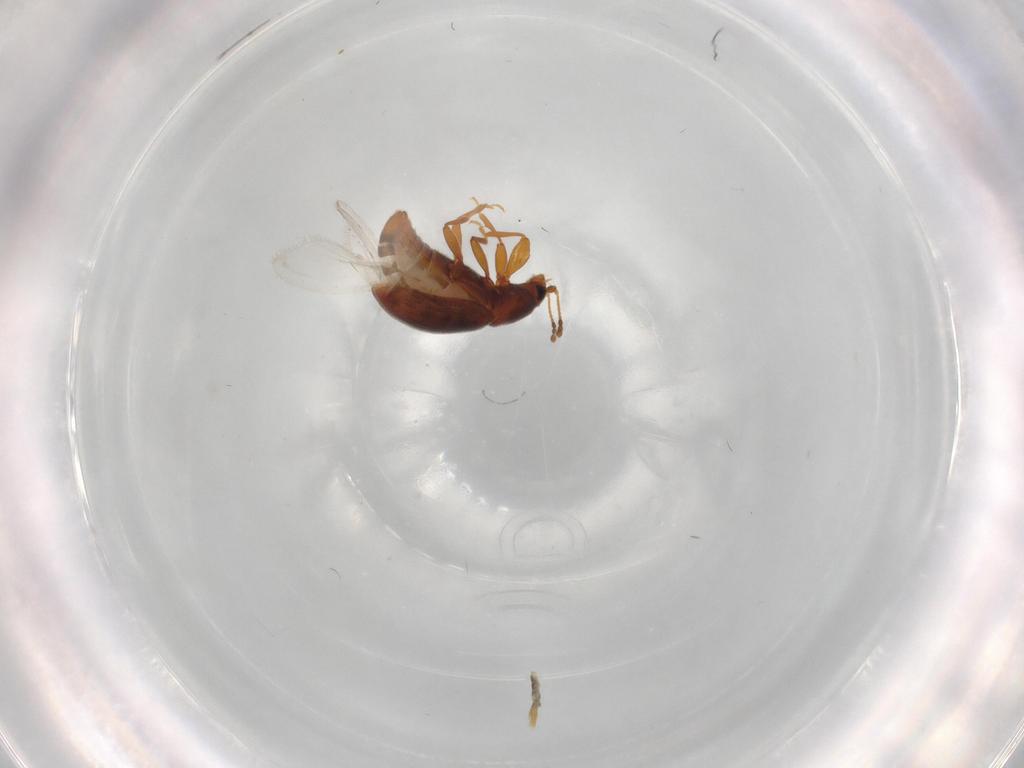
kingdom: Animalia
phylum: Arthropoda
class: Insecta
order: Coleoptera
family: Latridiidae
